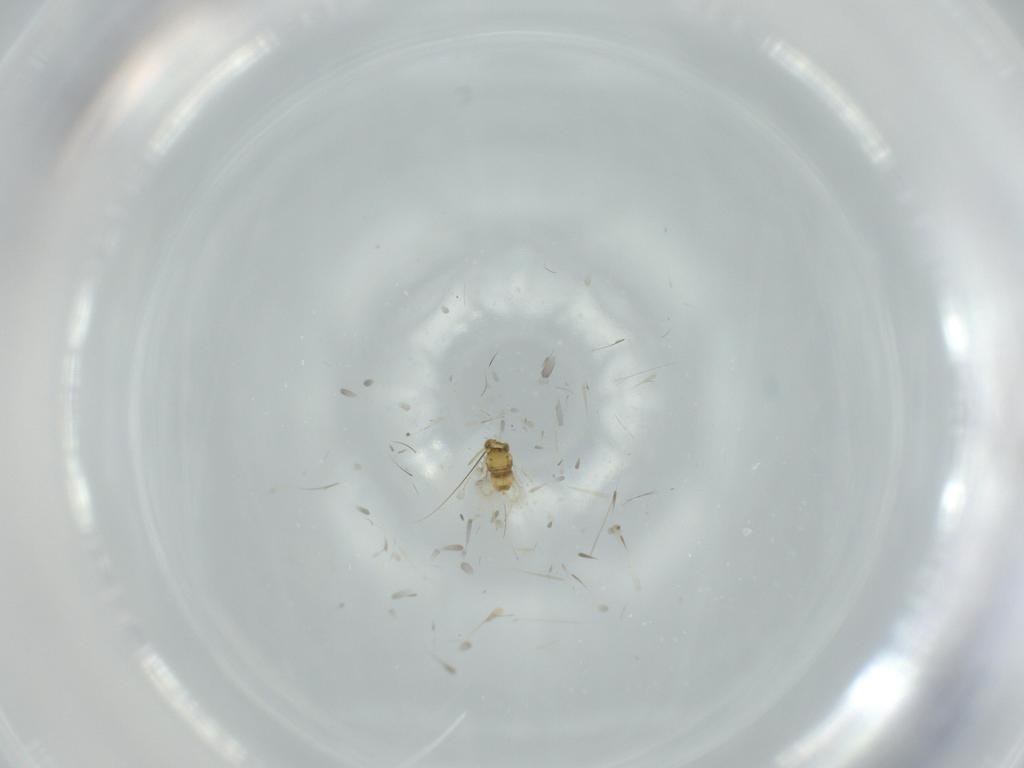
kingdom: Animalia
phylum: Arthropoda
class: Insecta
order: Hymenoptera
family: Aphelinidae
